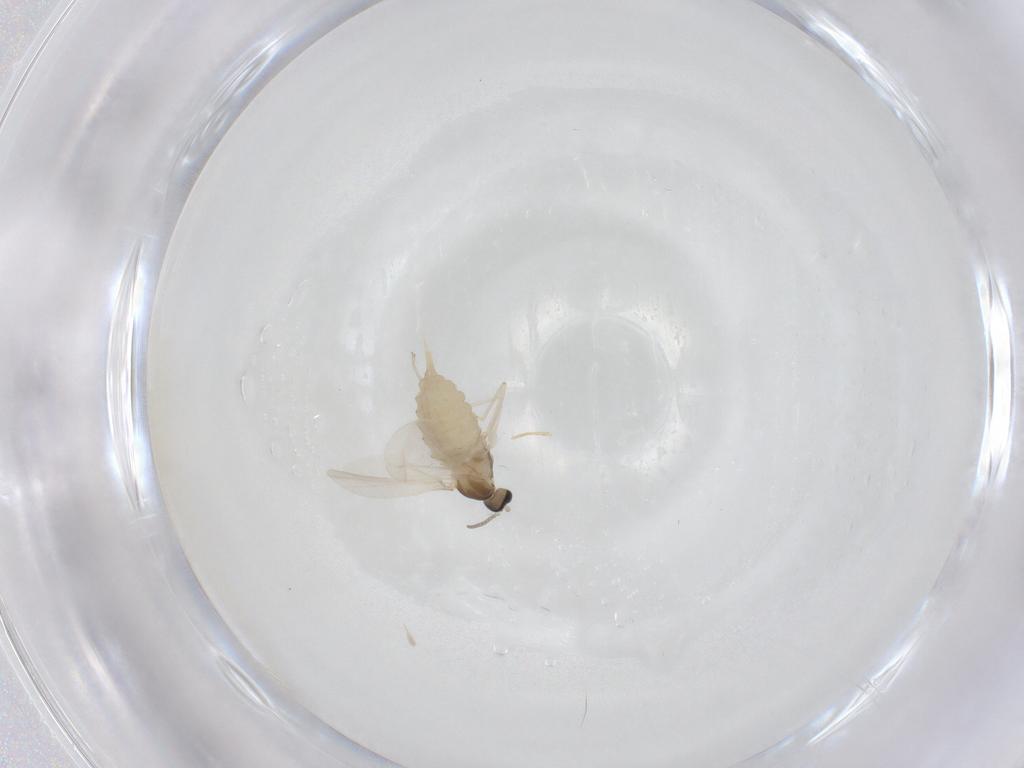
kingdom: Animalia
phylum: Arthropoda
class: Insecta
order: Diptera
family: Cecidomyiidae
